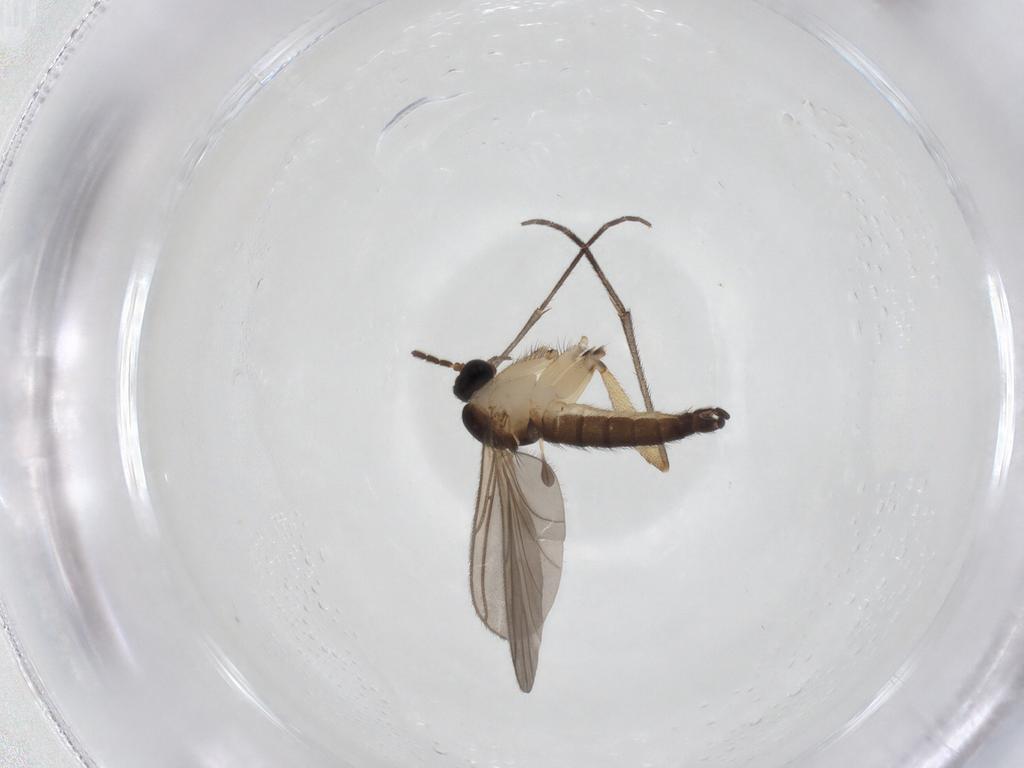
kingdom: Animalia
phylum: Arthropoda
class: Insecta
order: Diptera
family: Sciaridae
